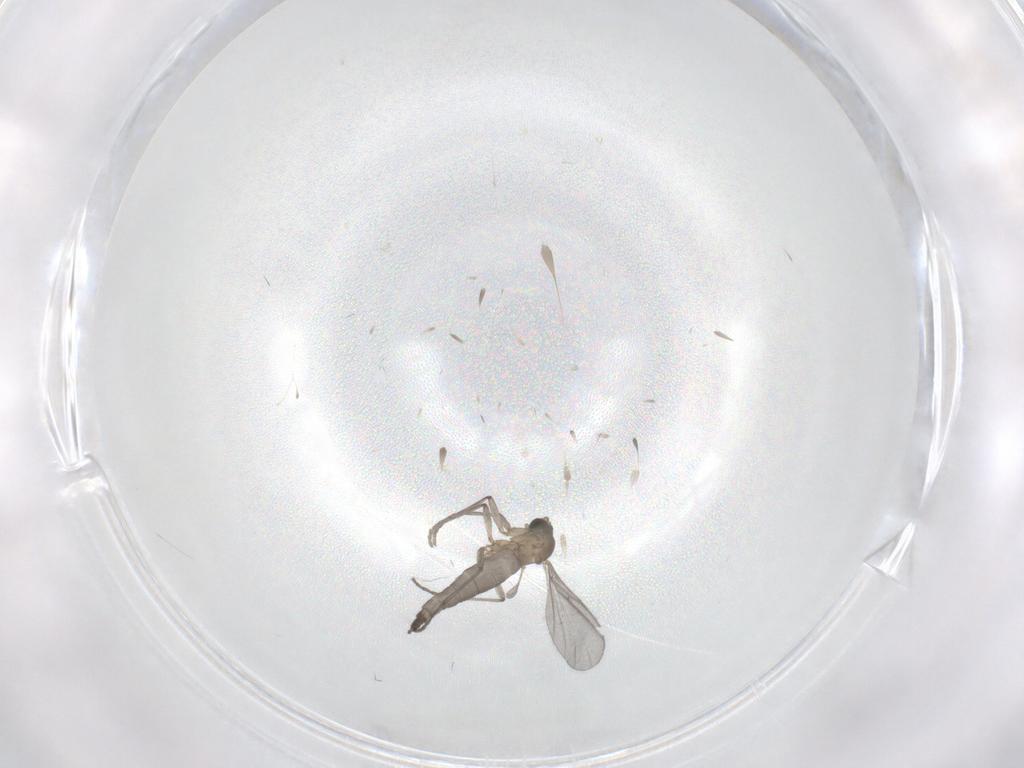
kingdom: Animalia
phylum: Arthropoda
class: Insecta
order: Diptera
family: Sciaridae
